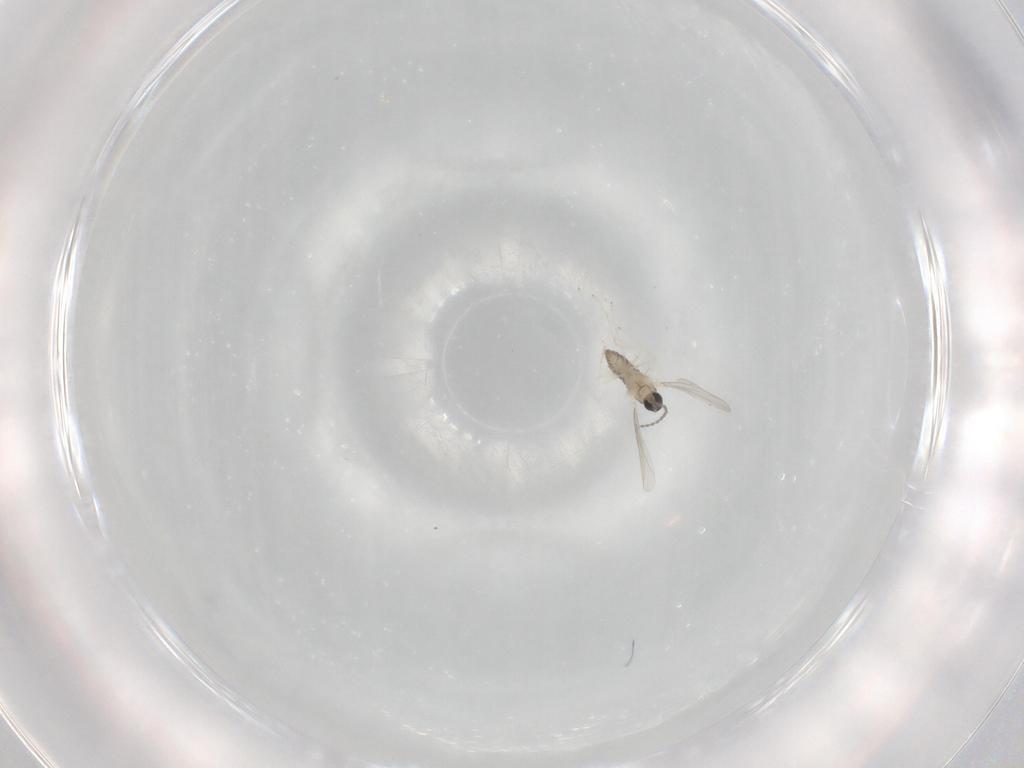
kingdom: Animalia
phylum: Arthropoda
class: Insecta
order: Diptera
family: Cecidomyiidae
